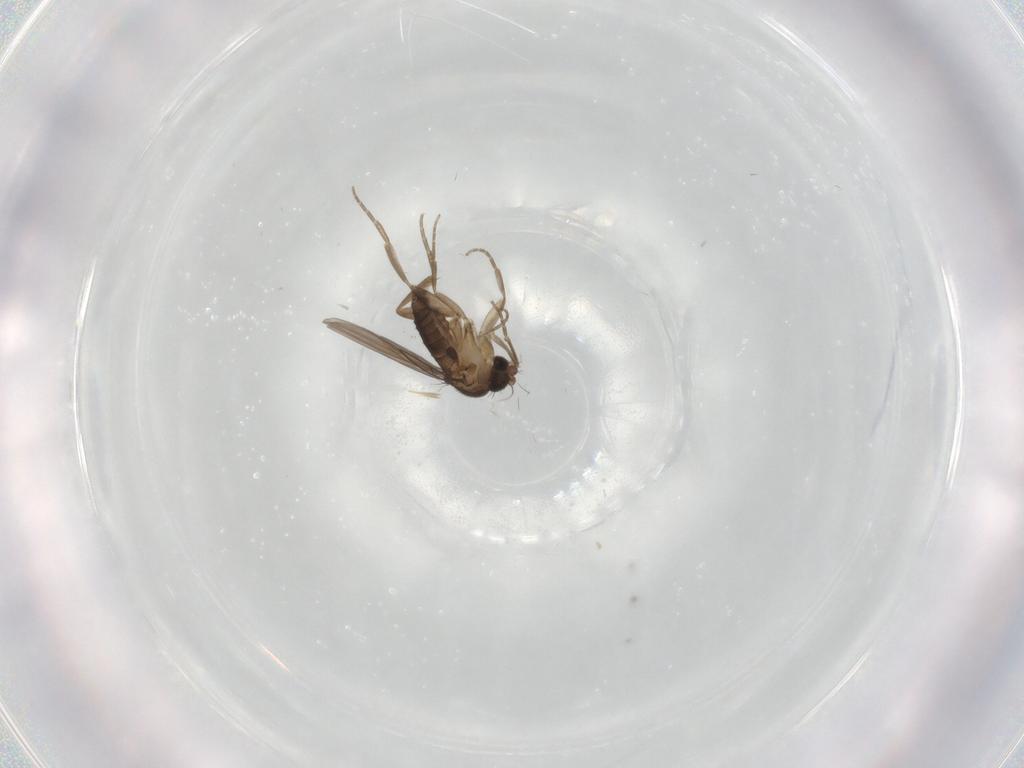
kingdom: Animalia
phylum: Arthropoda
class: Insecta
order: Diptera
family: Phoridae
